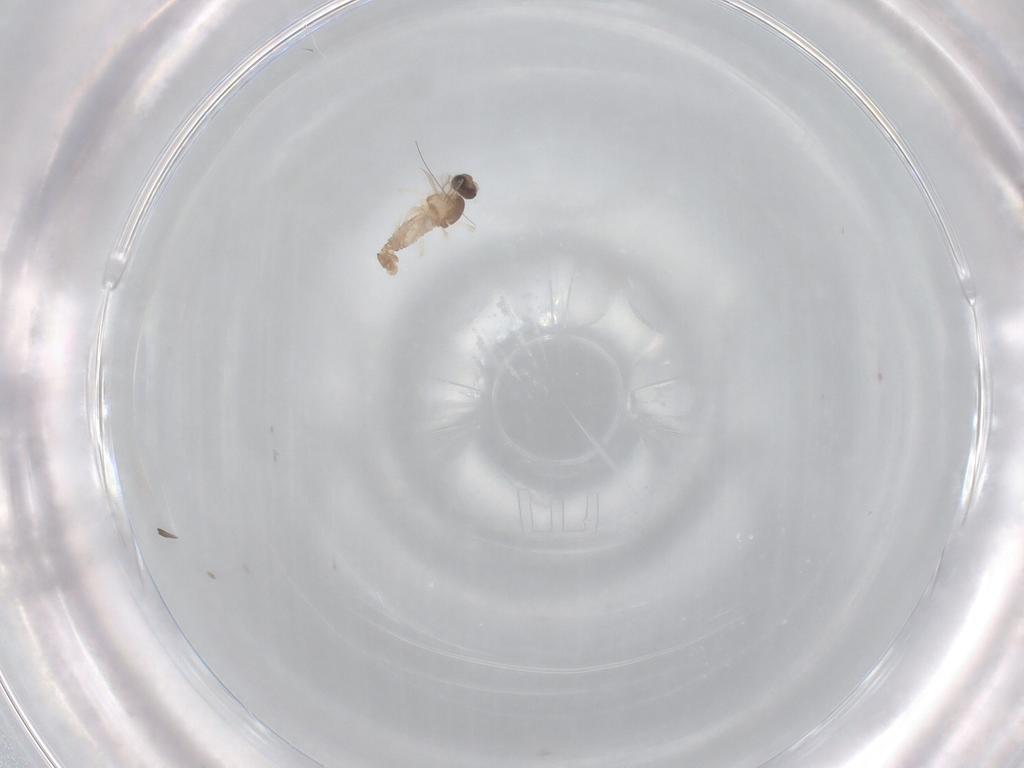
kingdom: Animalia
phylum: Arthropoda
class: Insecta
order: Diptera
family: Cecidomyiidae
